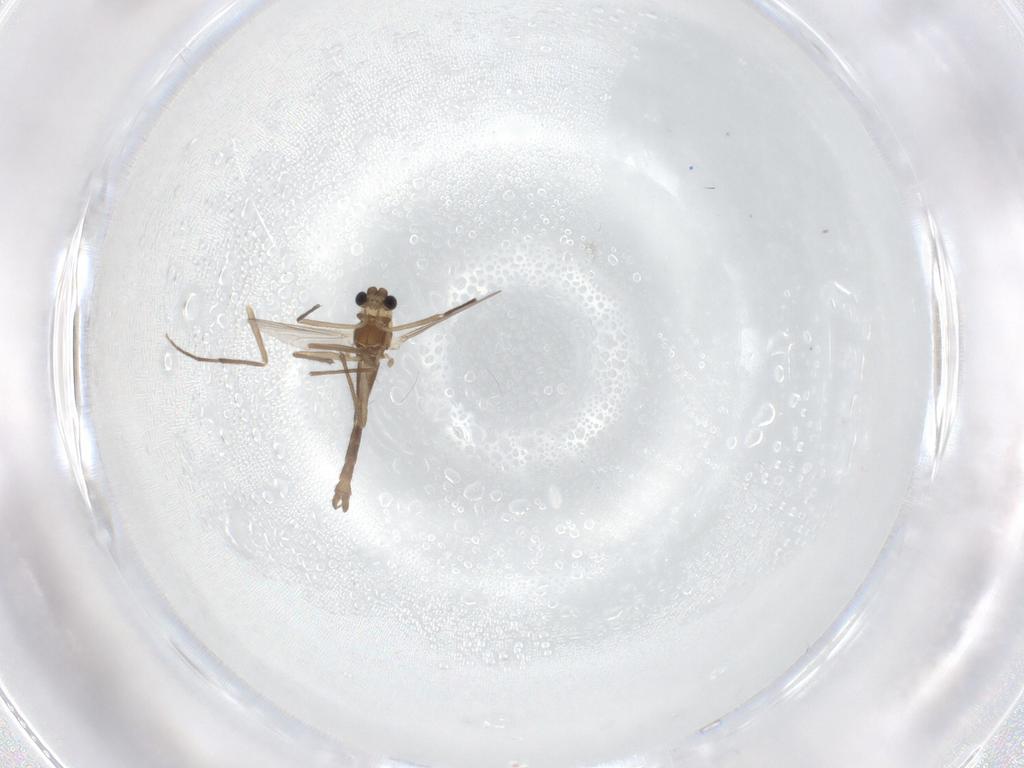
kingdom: Animalia
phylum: Arthropoda
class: Insecta
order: Diptera
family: Chironomidae
